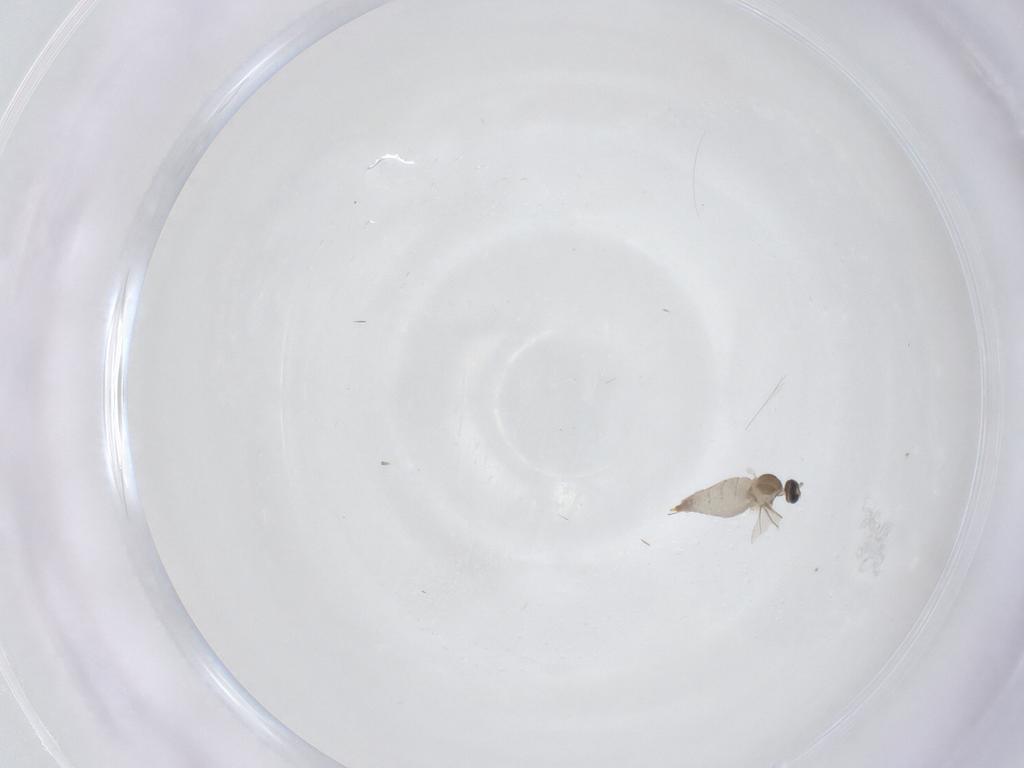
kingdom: Animalia
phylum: Arthropoda
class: Insecta
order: Diptera
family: Cecidomyiidae
